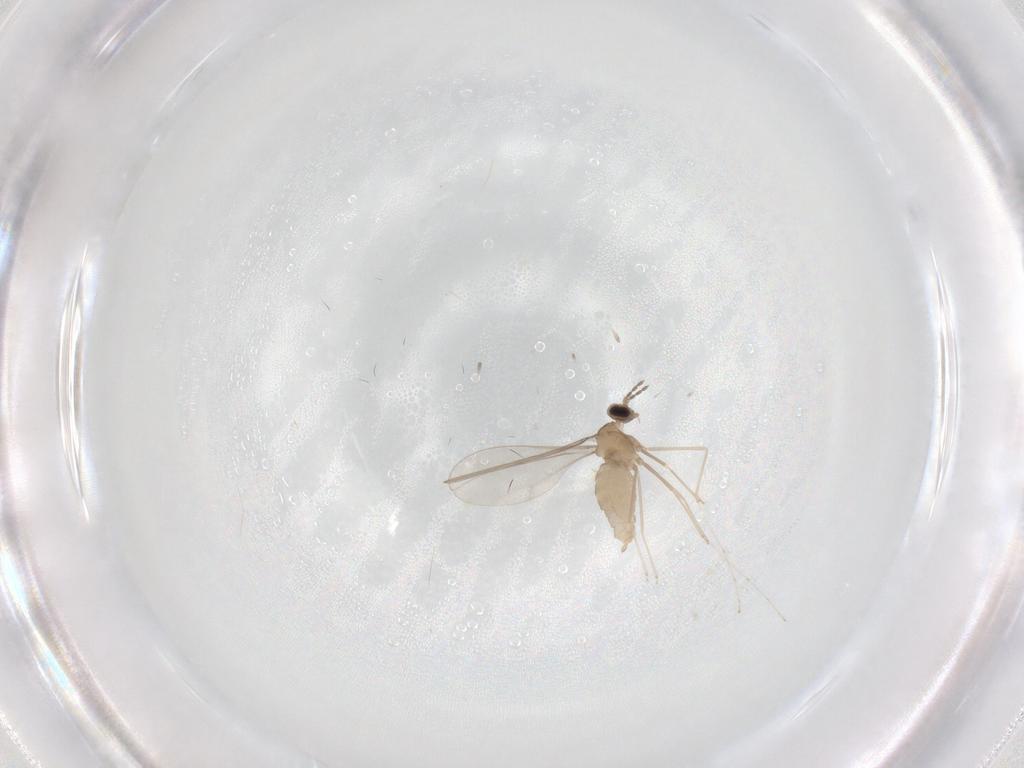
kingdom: Animalia
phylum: Arthropoda
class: Insecta
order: Diptera
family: Cecidomyiidae
